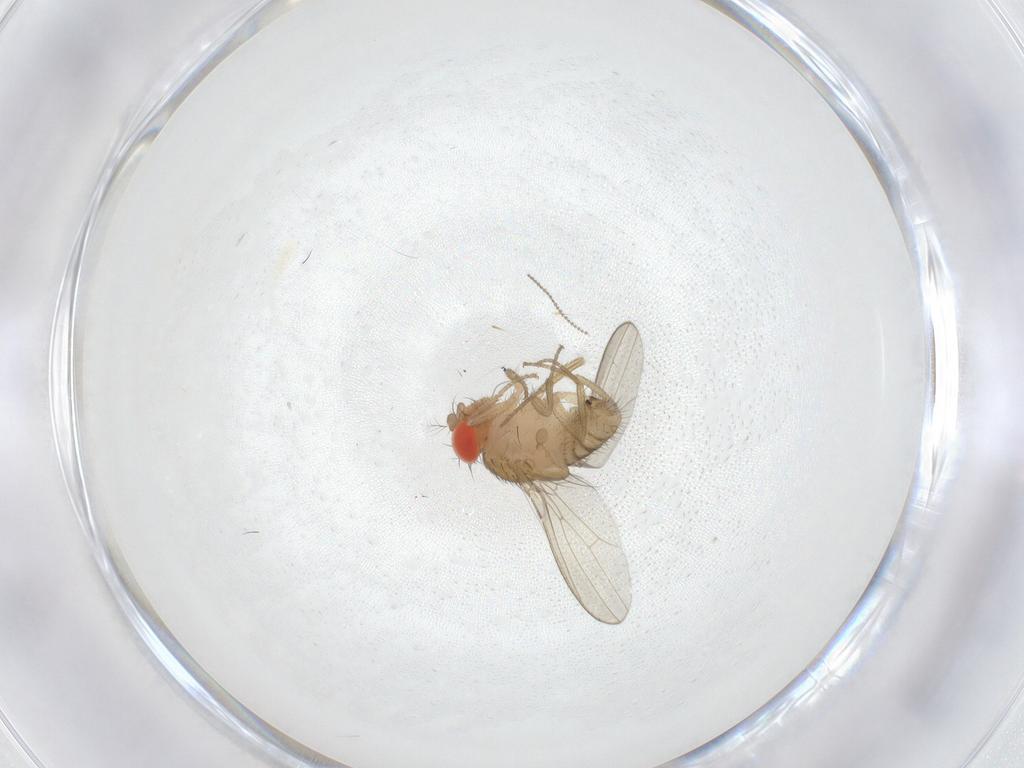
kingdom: Animalia
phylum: Arthropoda
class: Insecta
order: Diptera
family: Drosophilidae
